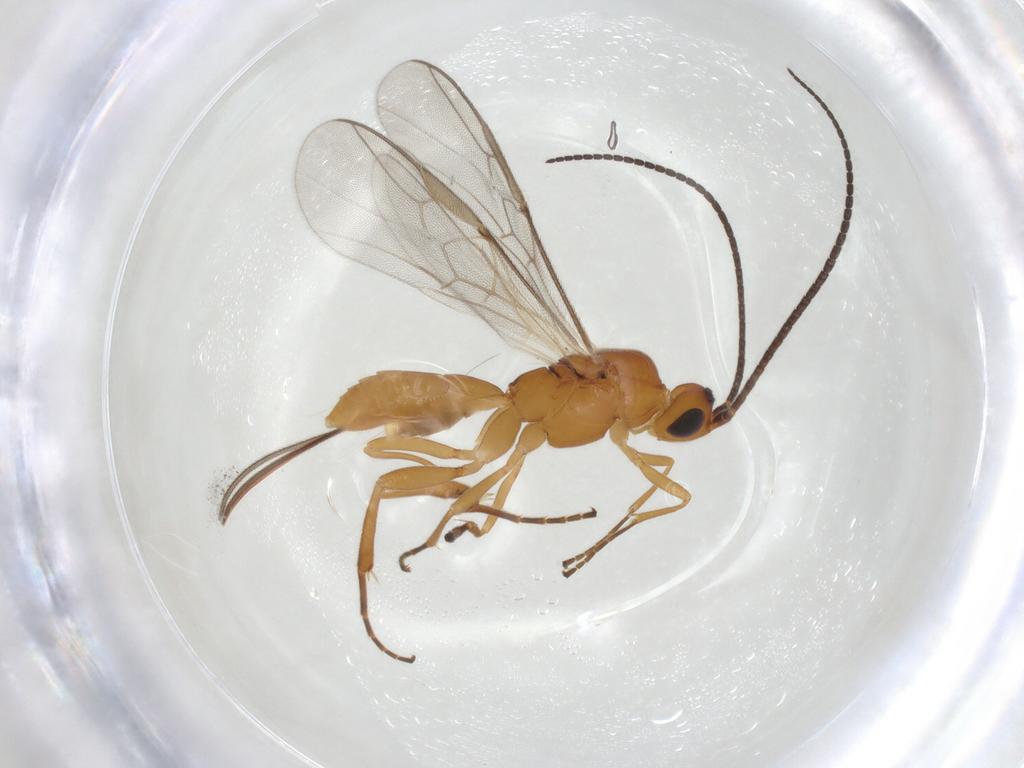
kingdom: Animalia
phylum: Arthropoda
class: Insecta
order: Hymenoptera
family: Braconidae
